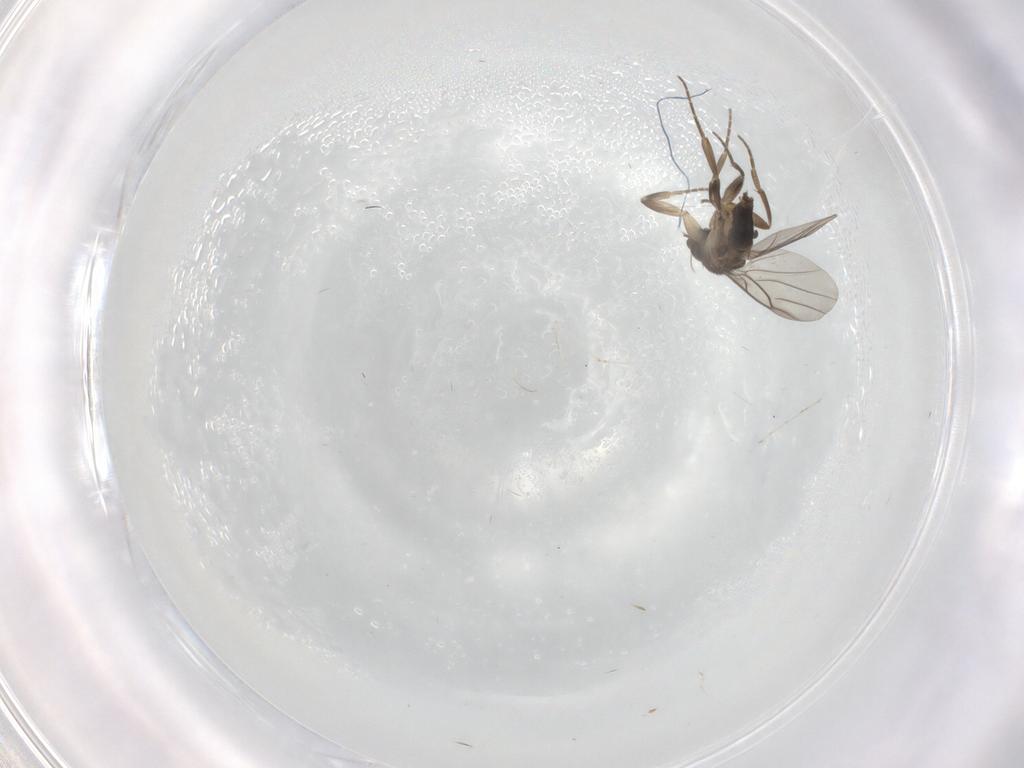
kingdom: Animalia
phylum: Arthropoda
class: Insecta
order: Diptera
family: Phoridae
